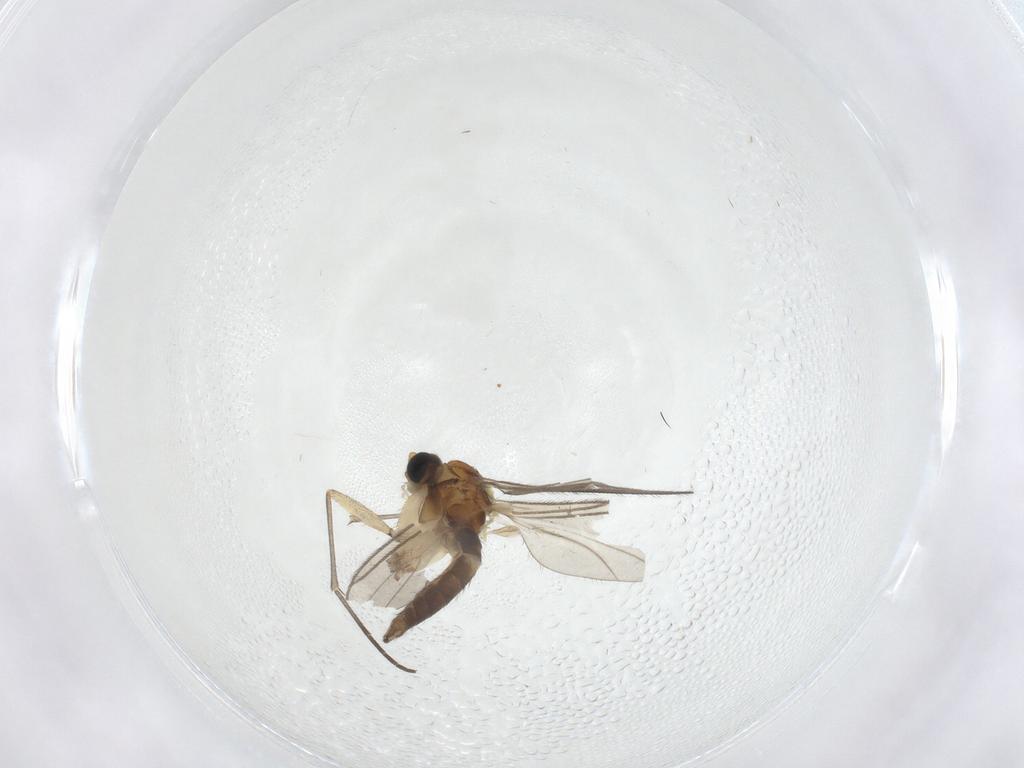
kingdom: Animalia
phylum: Arthropoda
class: Insecta
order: Diptera
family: Sciaridae
